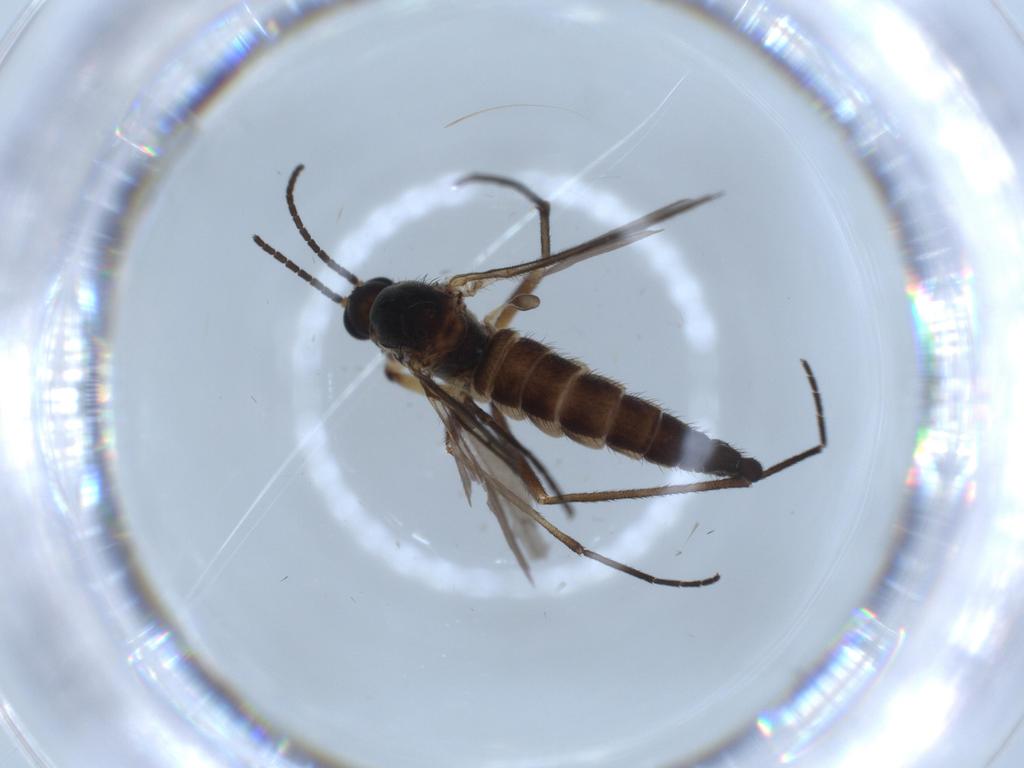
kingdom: Animalia
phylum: Arthropoda
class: Insecta
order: Diptera
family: Sciaridae
